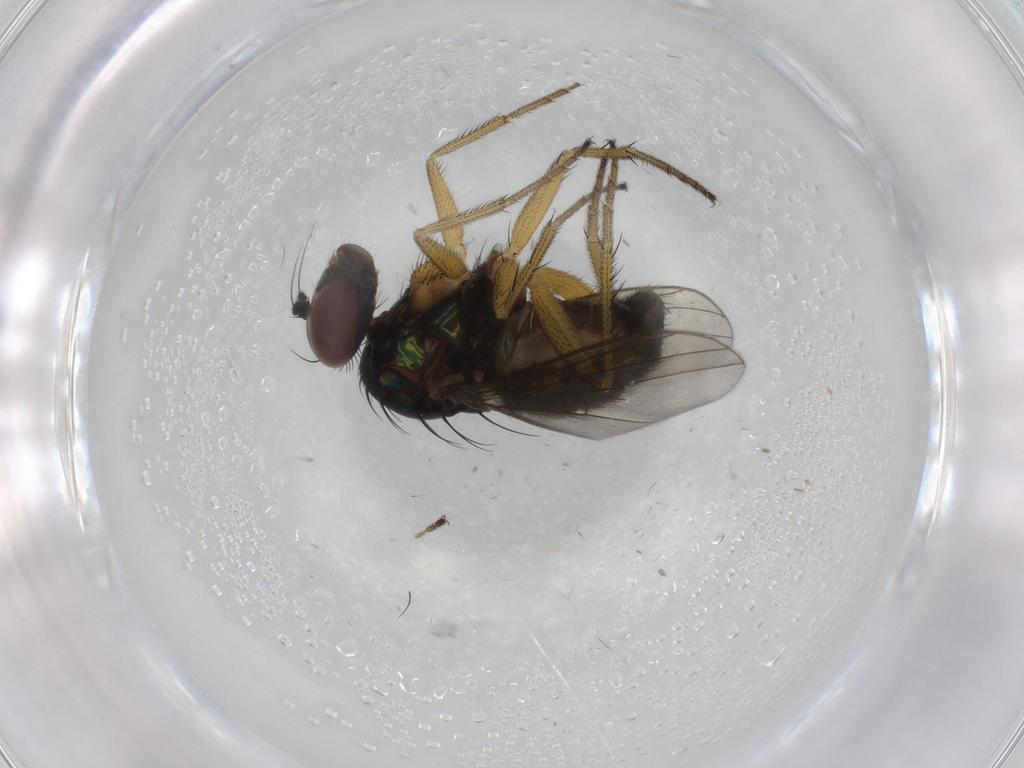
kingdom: Animalia
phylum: Arthropoda
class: Insecta
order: Diptera
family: Dolichopodidae
